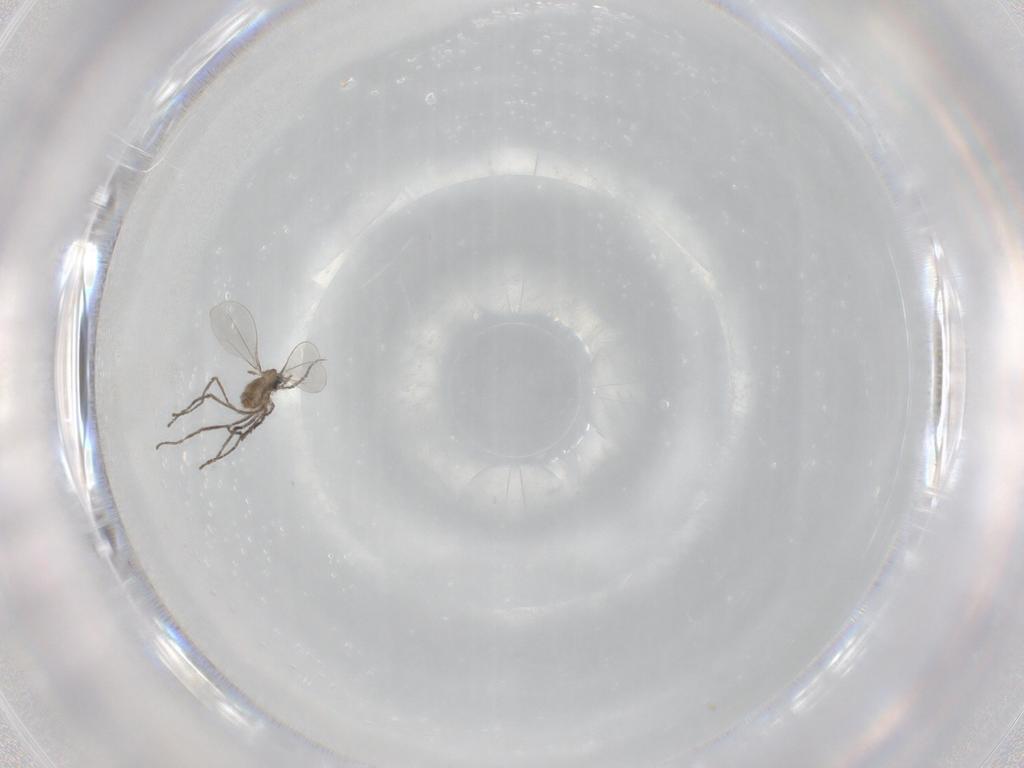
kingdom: Animalia
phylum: Arthropoda
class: Insecta
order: Diptera
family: Cecidomyiidae
